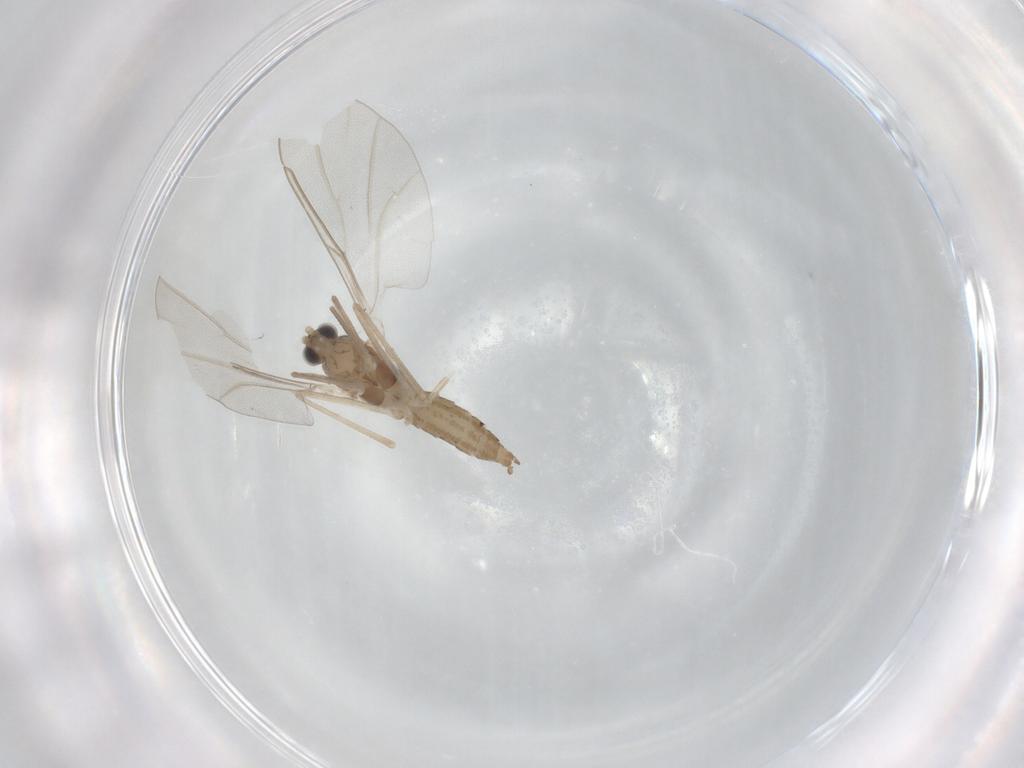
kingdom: Animalia
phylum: Arthropoda
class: Insecta
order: Diptera
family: Cecidomyiidae
